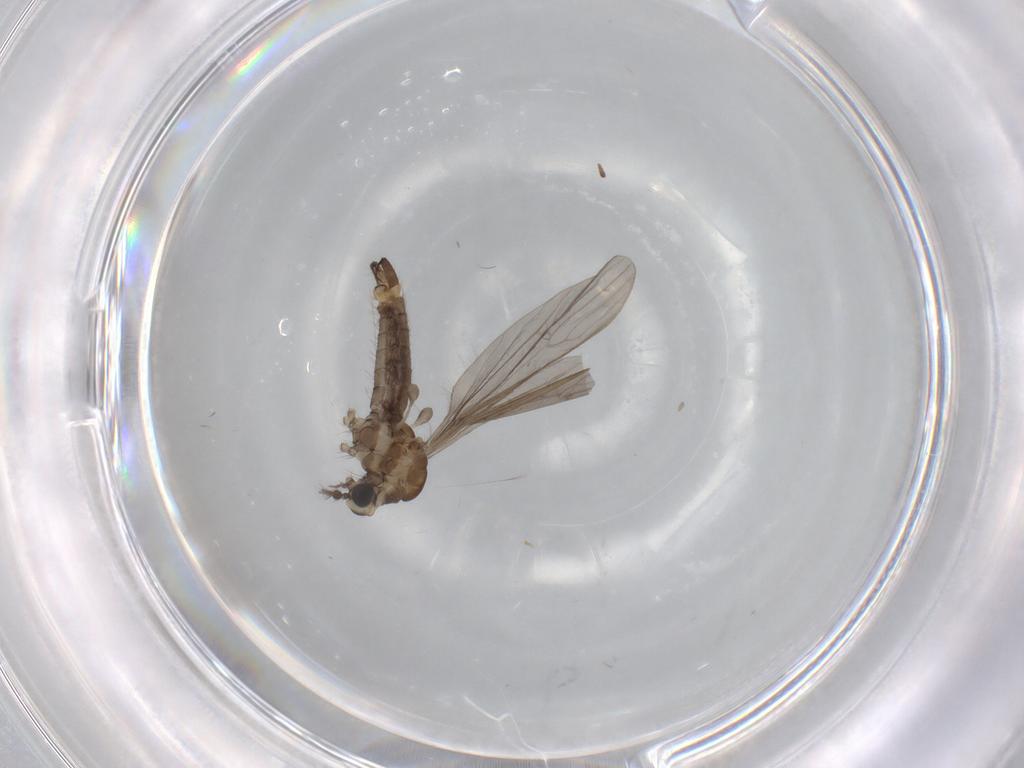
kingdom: Animalia
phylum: Arthropoda
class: Insecta
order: Diptera
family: Limoniidae
